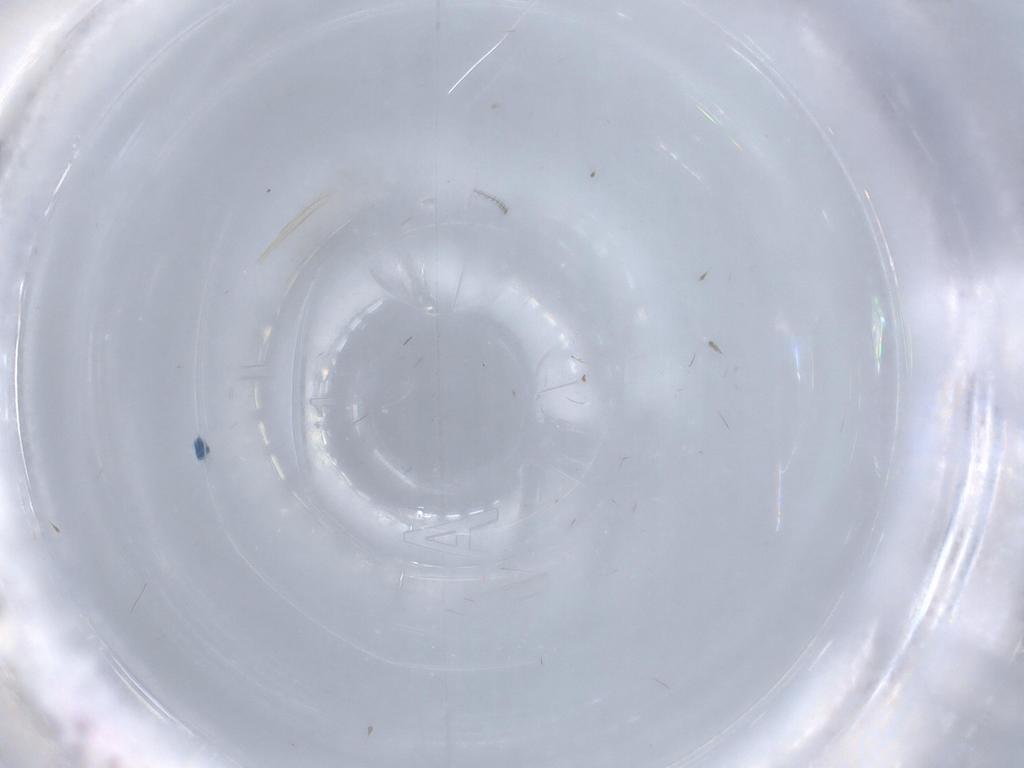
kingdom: Animalia
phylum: Arthropoda
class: Insecta
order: Diptera
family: Chironomidae
